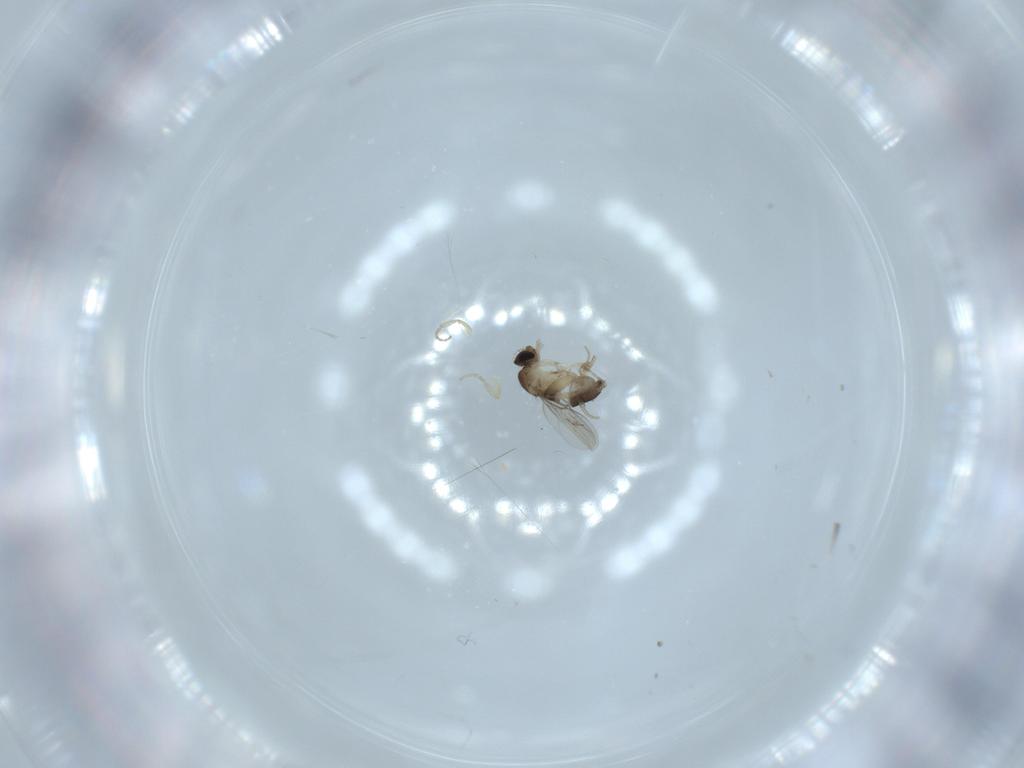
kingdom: Animalia
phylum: Arthropoda
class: Insecta
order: Diptera
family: Phoridae
